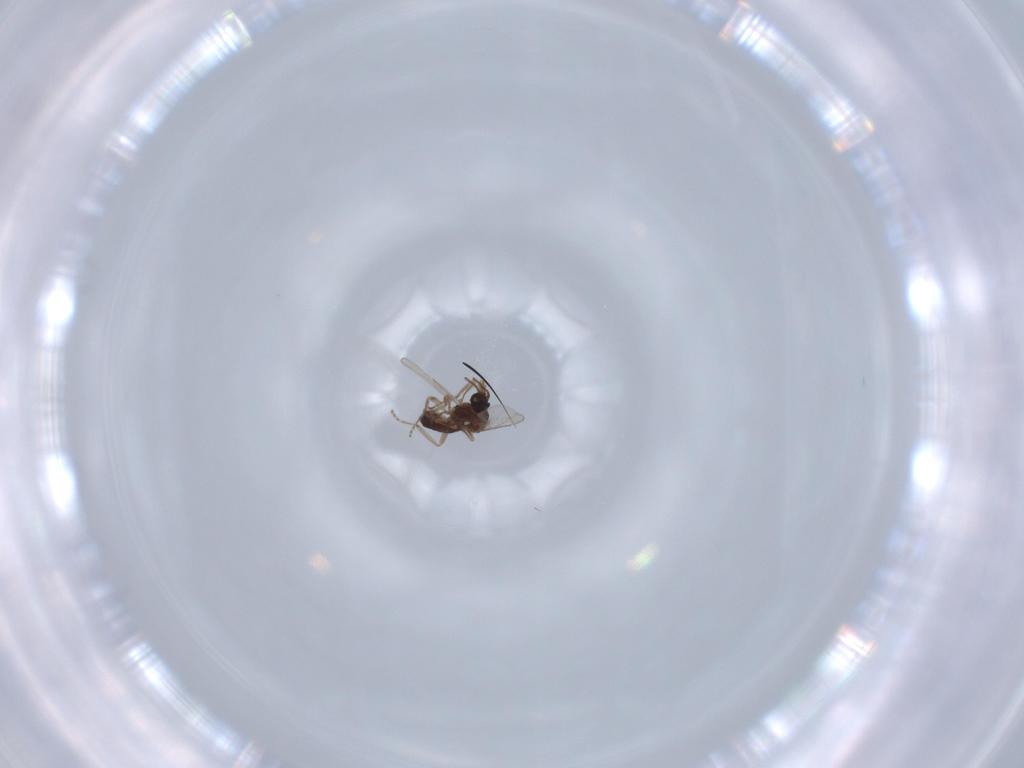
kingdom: Animalia
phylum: Arthropoda
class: Insecta
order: Diptera
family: Ceratopogonidae
